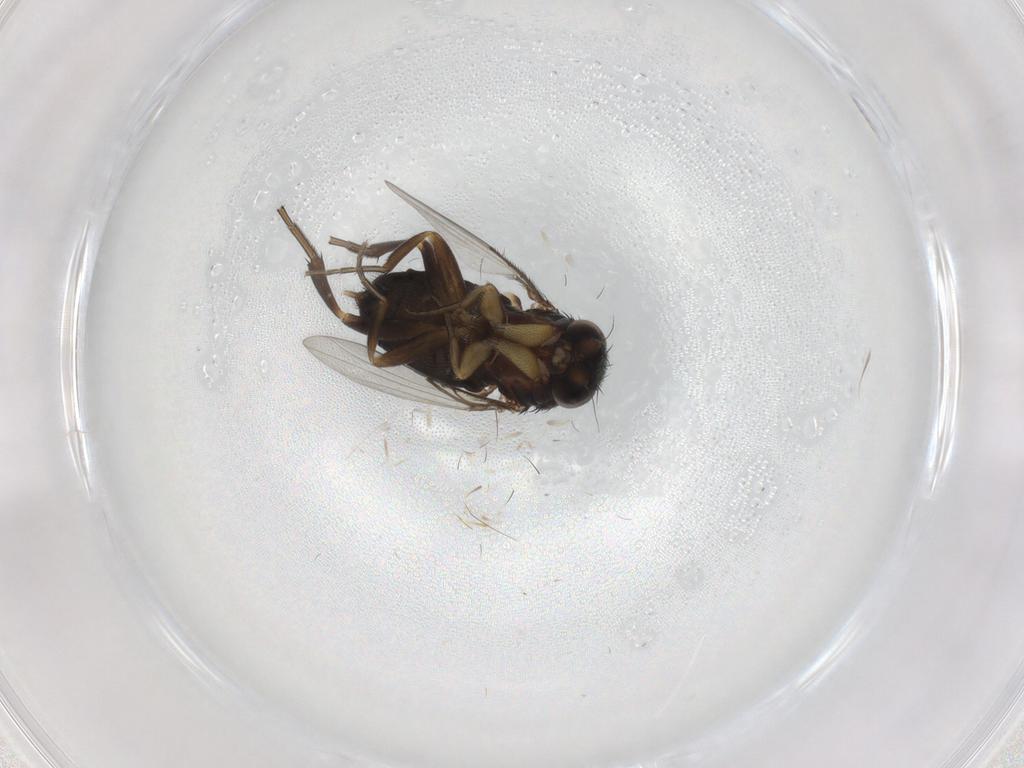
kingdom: Animalia
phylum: Arthropoda
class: Insecta
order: Diptera
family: Phoridae
